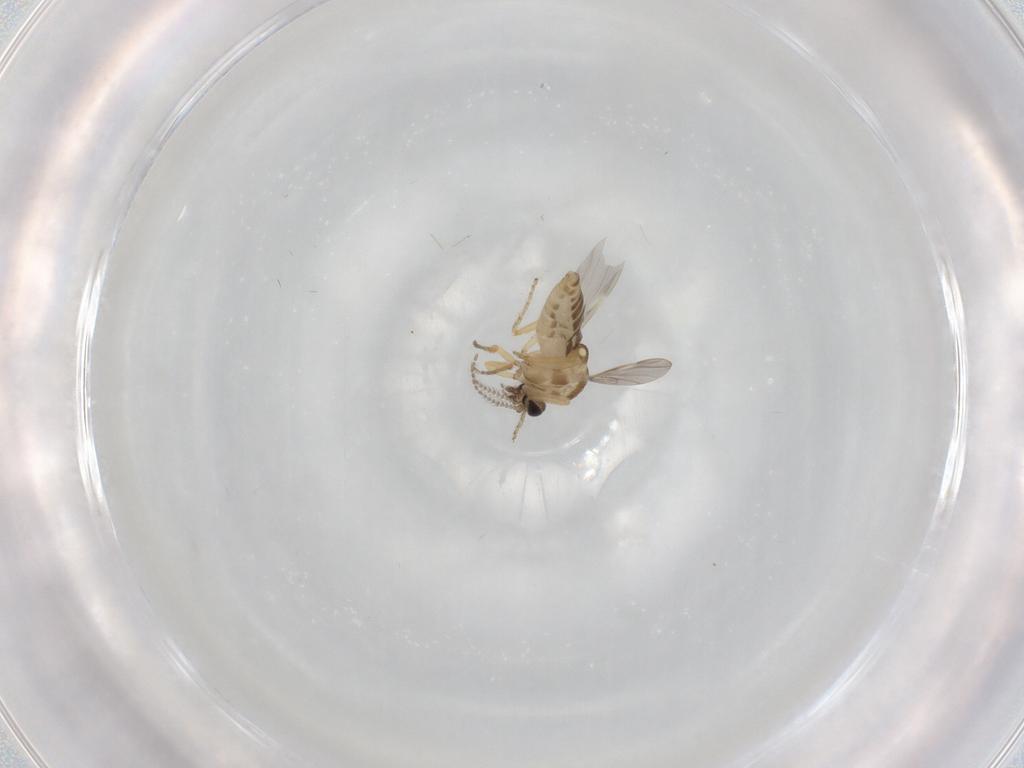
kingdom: Animalia
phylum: Arthropoda
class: Insecta
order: Diptera
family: Ceratopogonidae
